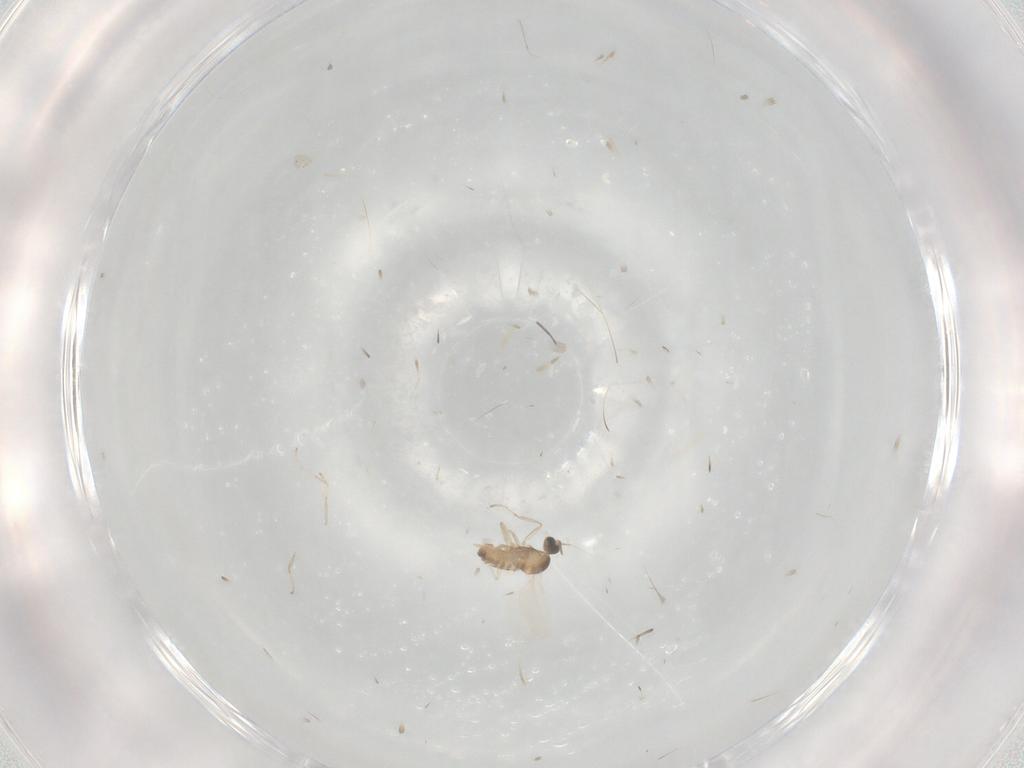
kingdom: Animalia
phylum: Arthropoda
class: Insecta
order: Diptera
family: Cecidomyiidae
